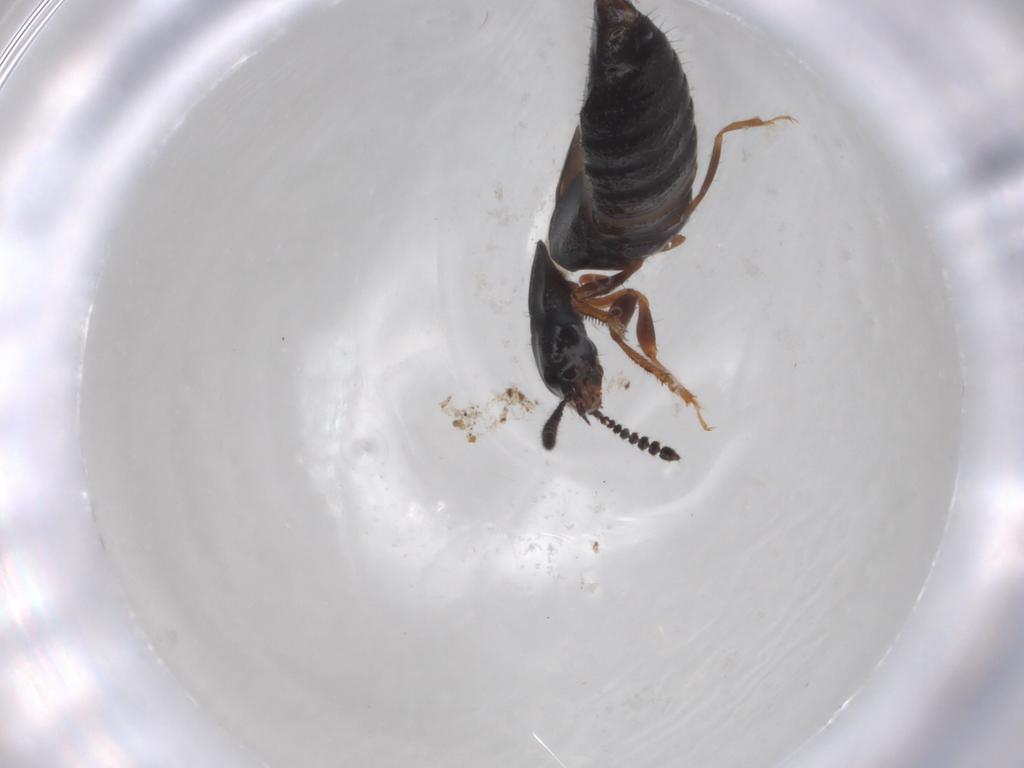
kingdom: Animalia
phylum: Arthropoda
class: Insecta
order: Coleoptera
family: Staphylinidae
